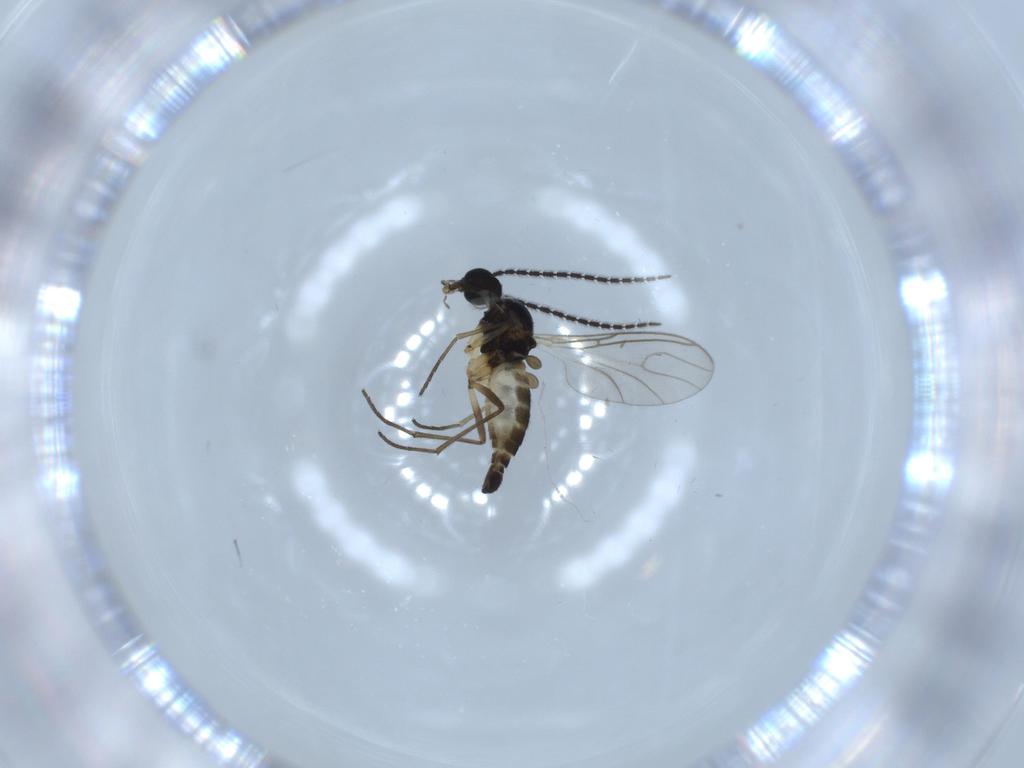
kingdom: Animalia
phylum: Arthropoda
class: Insecta
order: Diptera
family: Sciaridae
